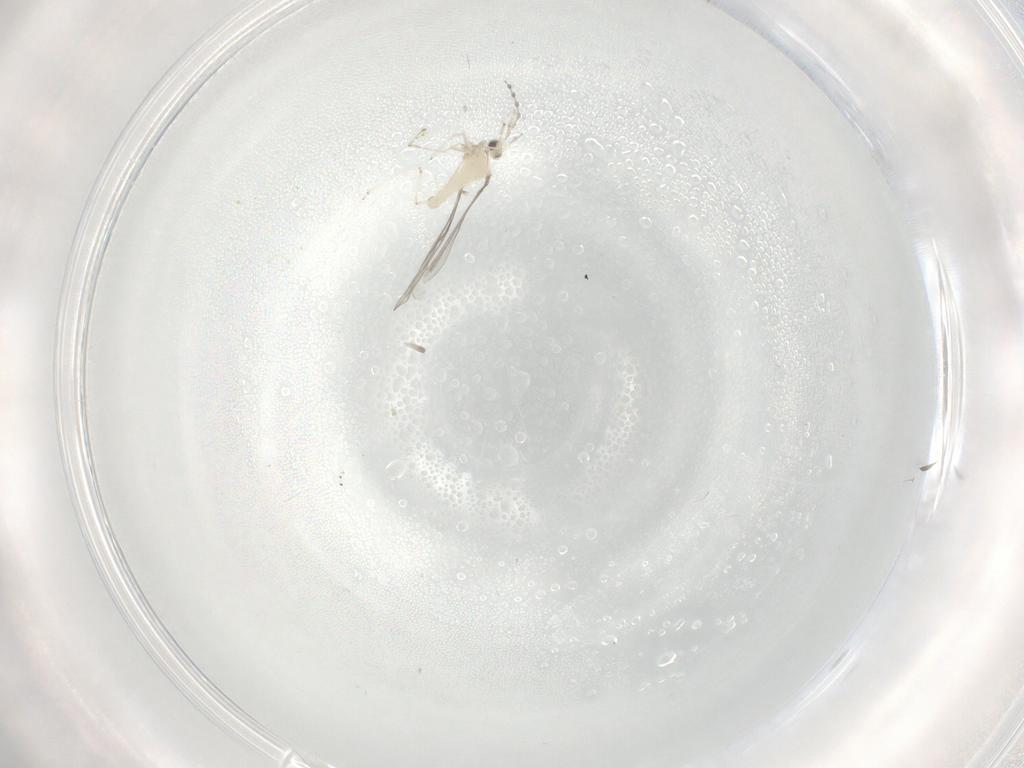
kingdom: Animalia
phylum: Arthropoda
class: Insecta
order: Diptera
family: Cecidomyiidae
